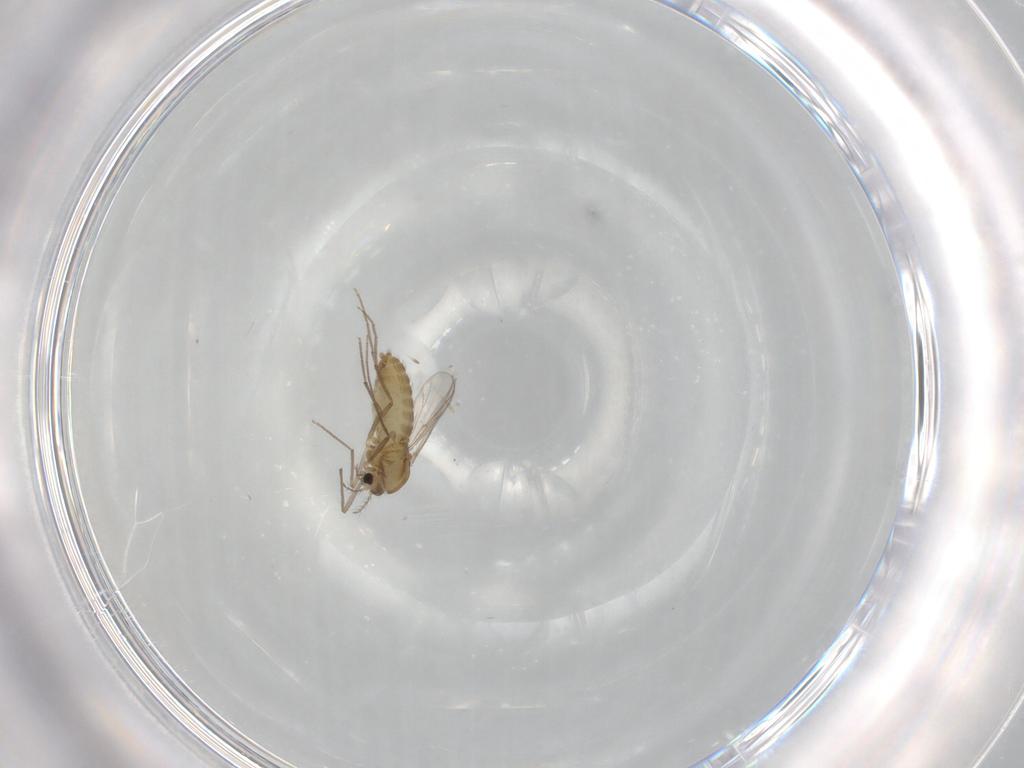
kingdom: Animalia
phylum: Arthropoda
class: Insecta
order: Diptera
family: Chironomidae
